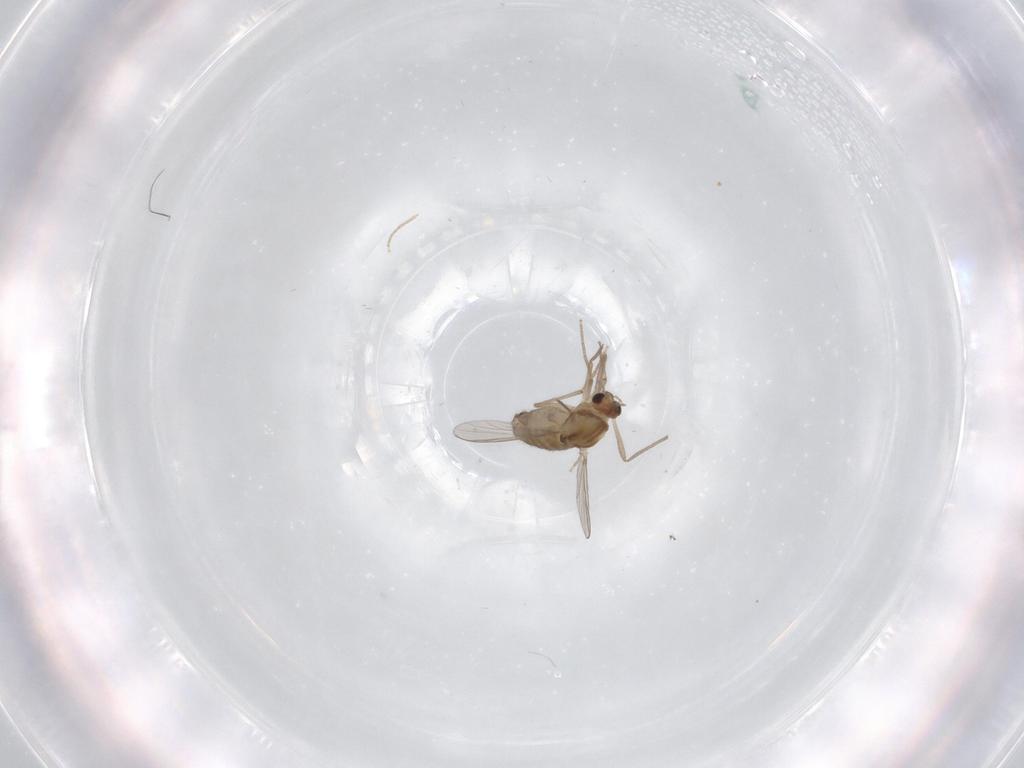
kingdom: Animalia
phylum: Arthropoda
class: Insecta
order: Diptera
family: Chironomidae
